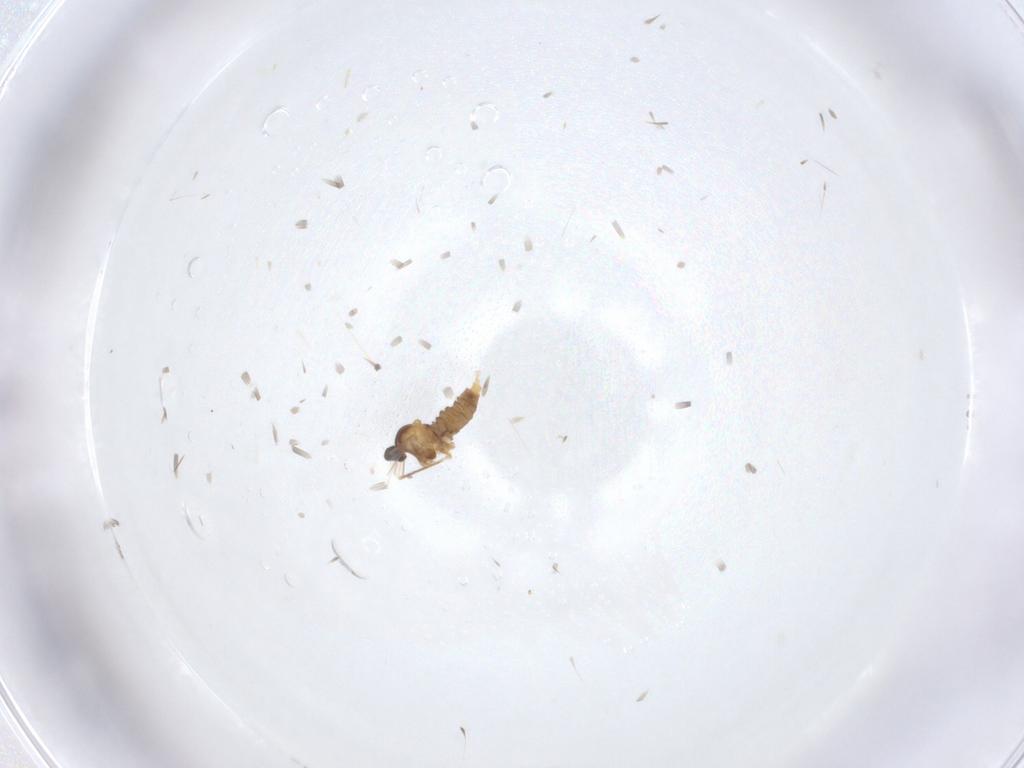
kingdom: Animalia
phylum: Arthropoda
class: Insecta
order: Diptera
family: Cecidomyiidae
